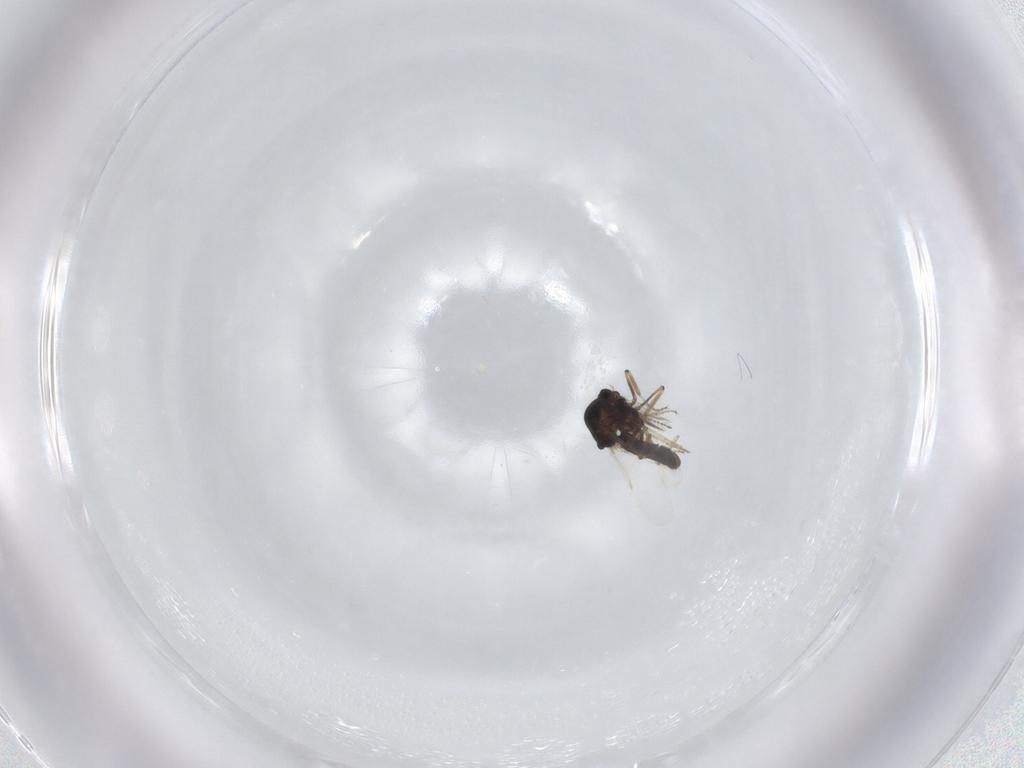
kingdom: Animalia
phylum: Arthropoda
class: Insecta
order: Diptera
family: Ceratopogonidae
